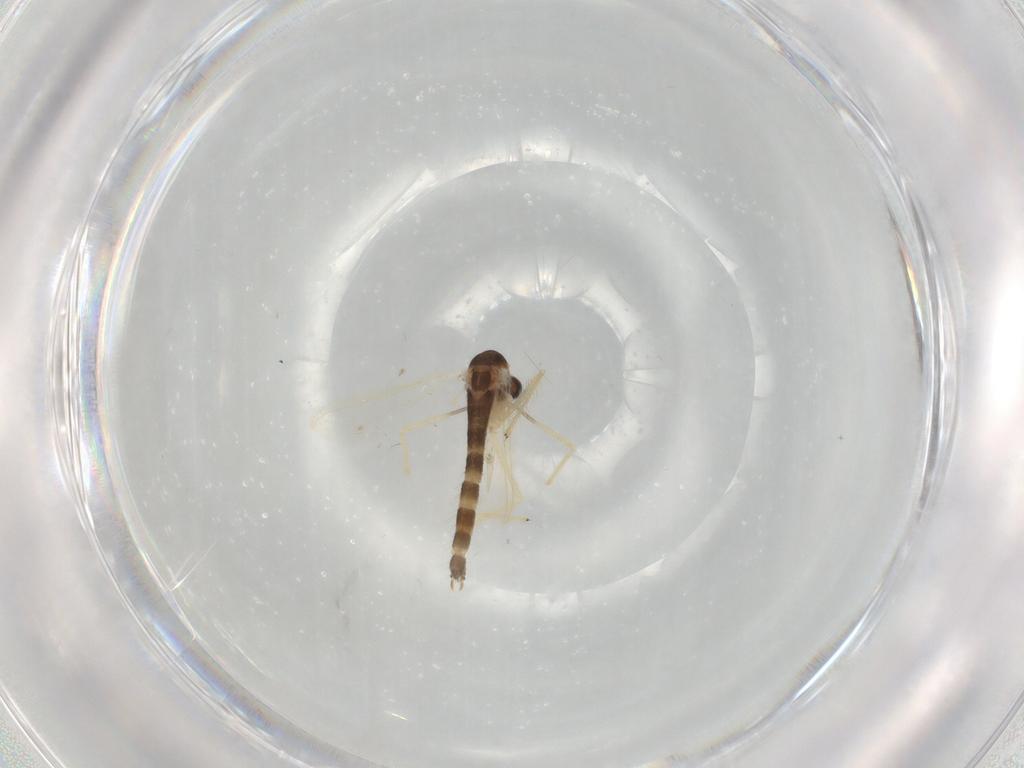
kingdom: Animalia
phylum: Arthropoda
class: Insecta
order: Diptera
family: Chironomidae
